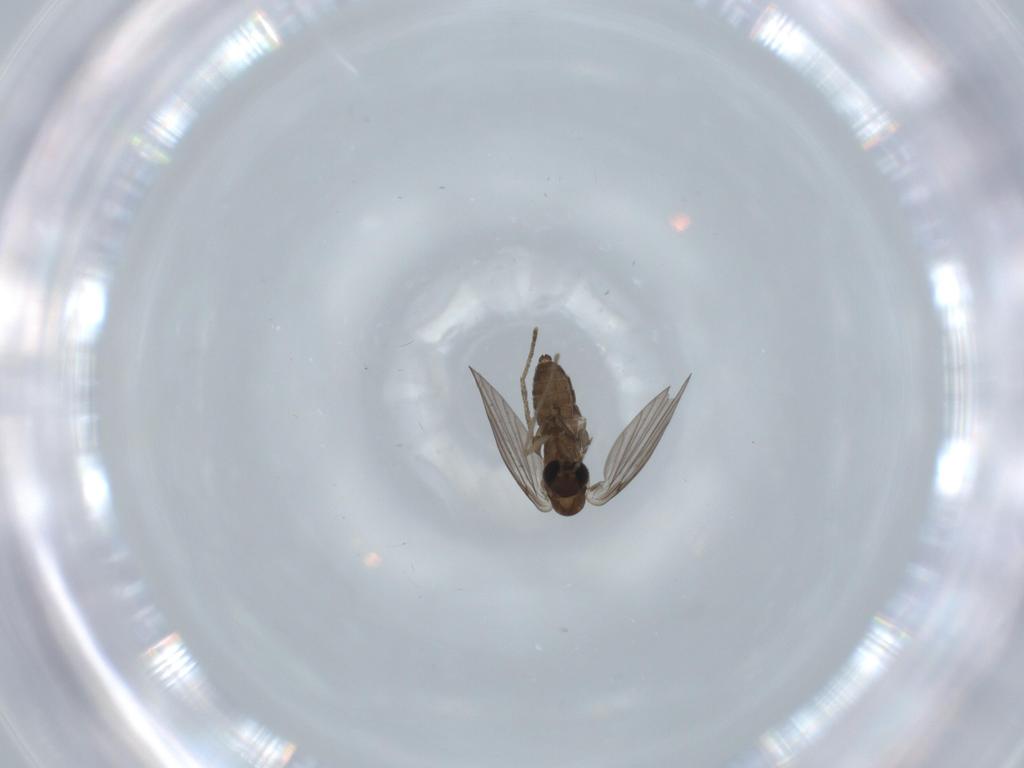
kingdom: Animalia
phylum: Arthropoda
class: Insecta
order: Diptera
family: Psychodidae
